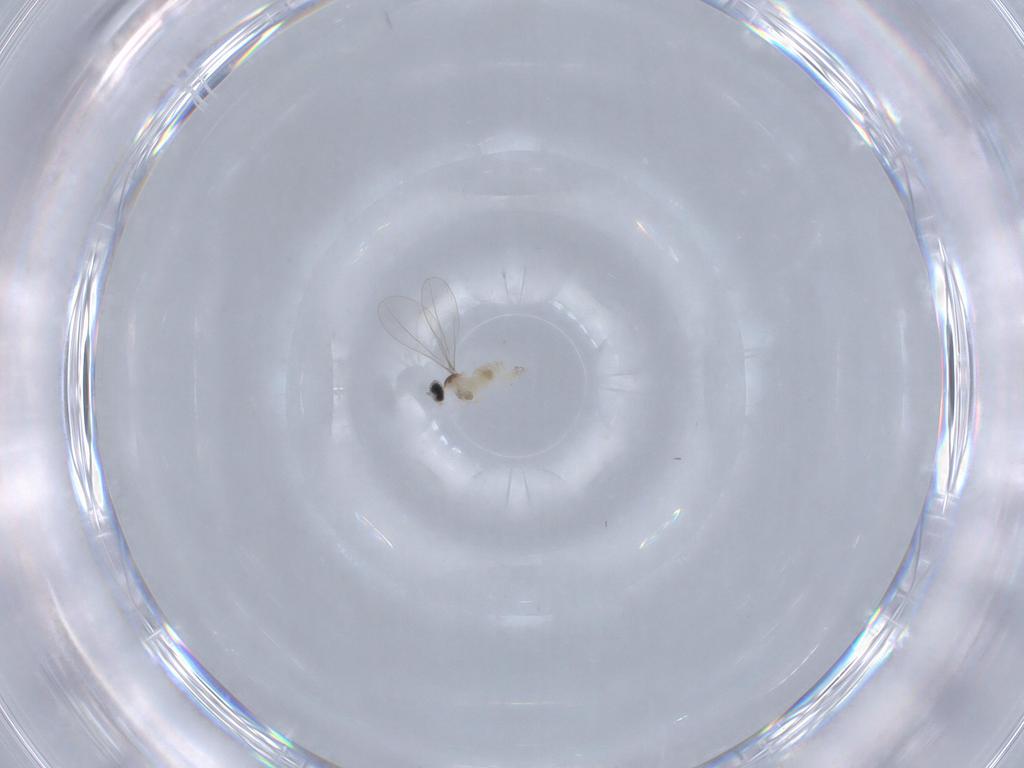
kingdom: Animalia
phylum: Arthropoda
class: Insecta
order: Diptera
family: Cecidomyiidae
